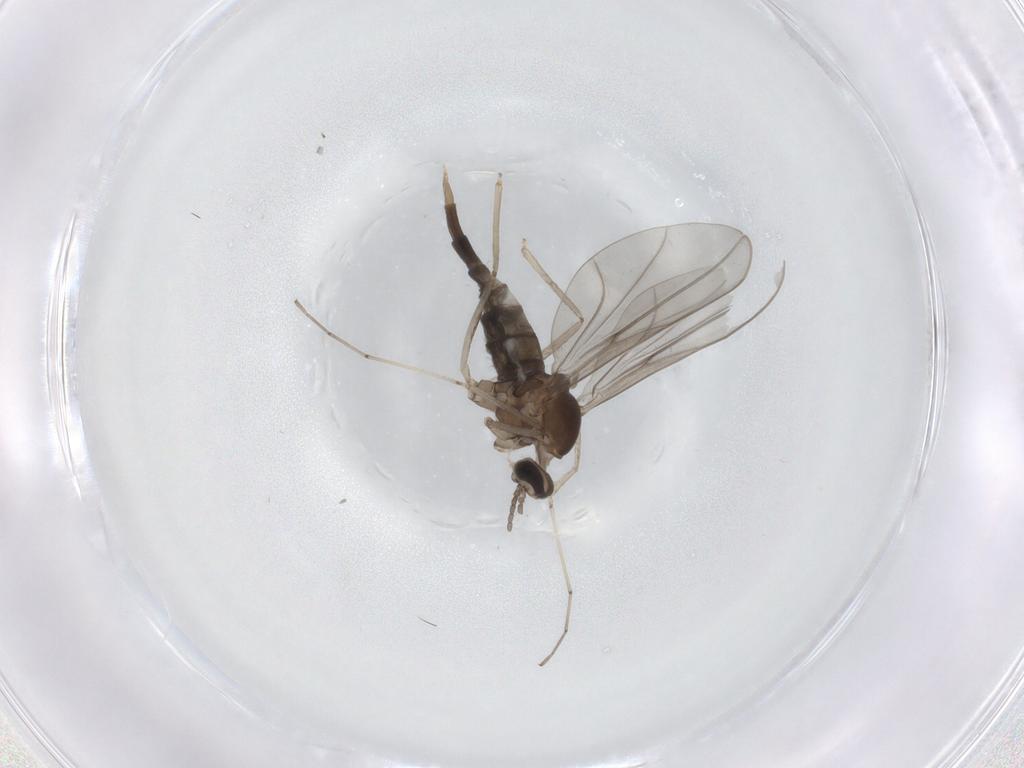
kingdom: Animalia
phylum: Arthropoda
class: Insecta
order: Diptera
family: Cecidomyiidae
